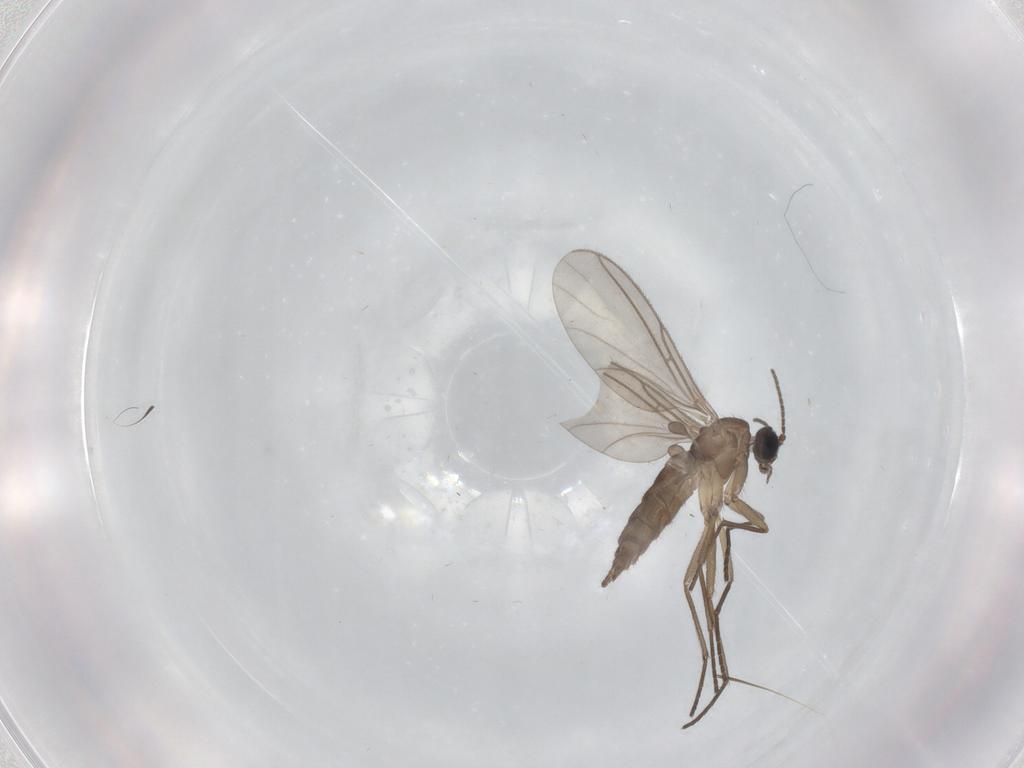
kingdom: Animalia
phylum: Arthropoda
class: Insecta
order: Diptera
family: Sciaridae
